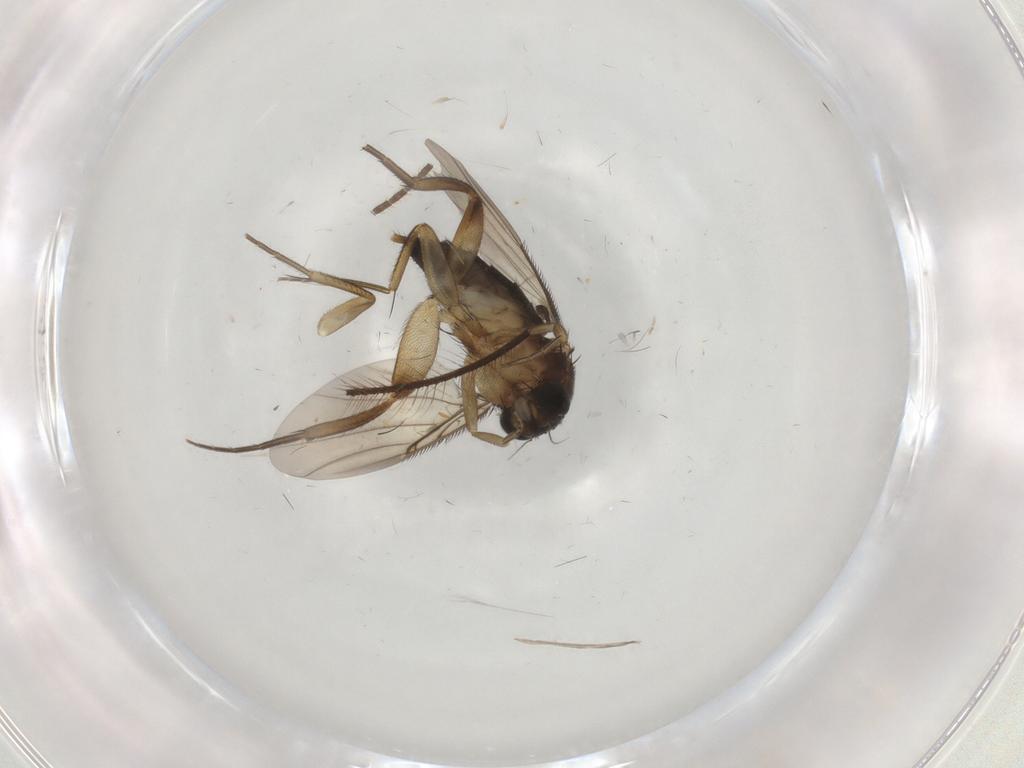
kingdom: Animalia
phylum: Arthropoda
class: Insecta
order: Diptera
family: Phoridae
